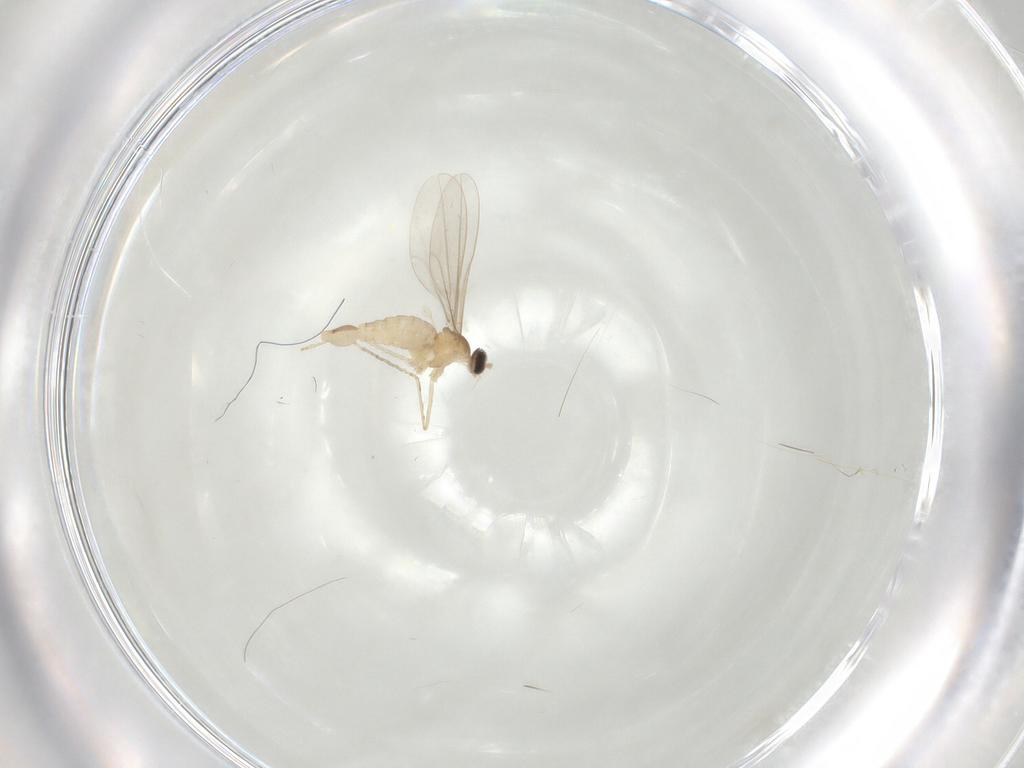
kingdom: Animalia
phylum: Arthropoda
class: Insecta
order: Diptera
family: Cecidomyiidae
